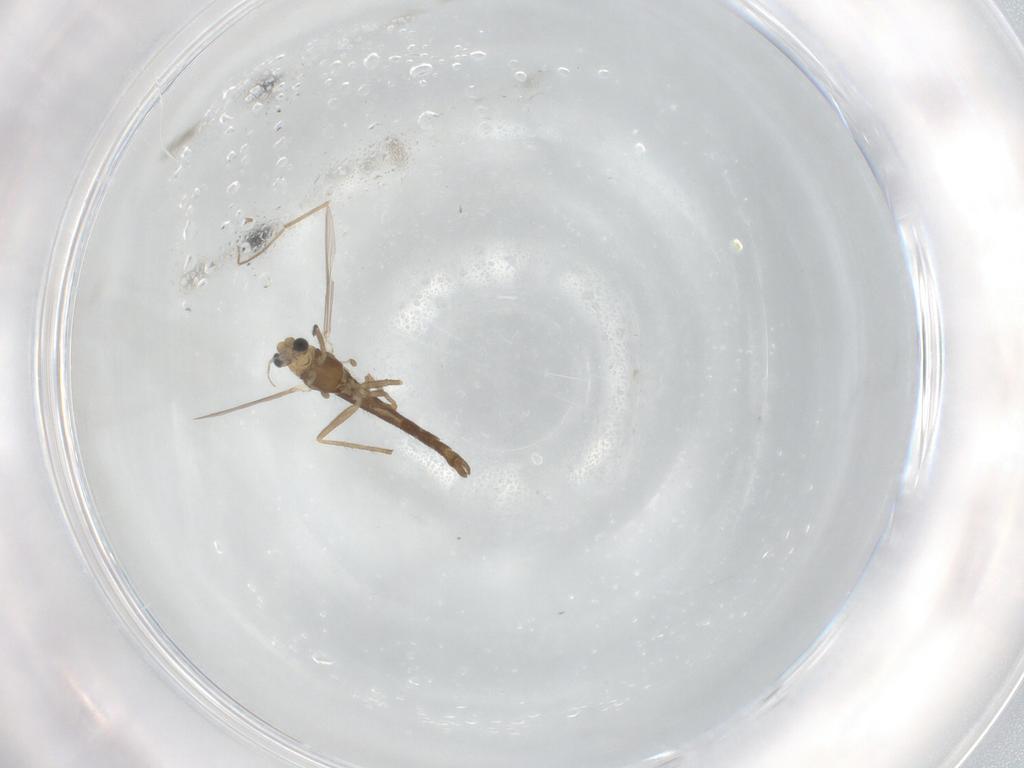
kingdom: Animalia
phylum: Arthropoda
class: Insecta
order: Diptera
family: Chironomidae
